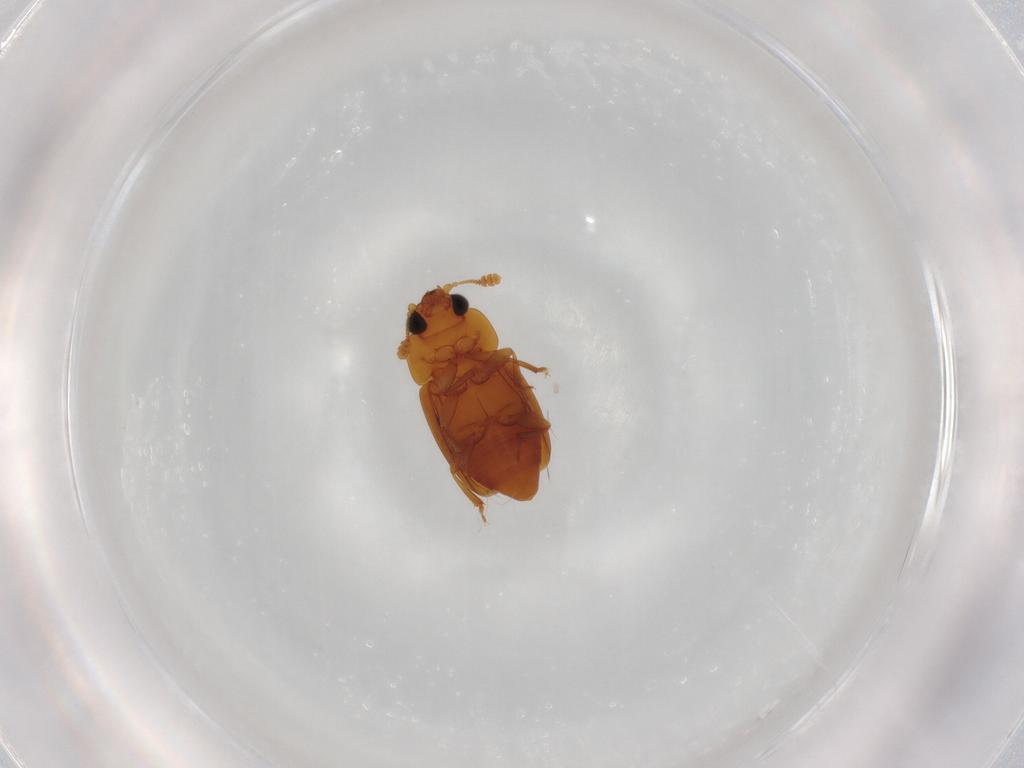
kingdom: Animalia
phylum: Arthropoda
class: Insecta
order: Coleoptera
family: Nitidulidae
